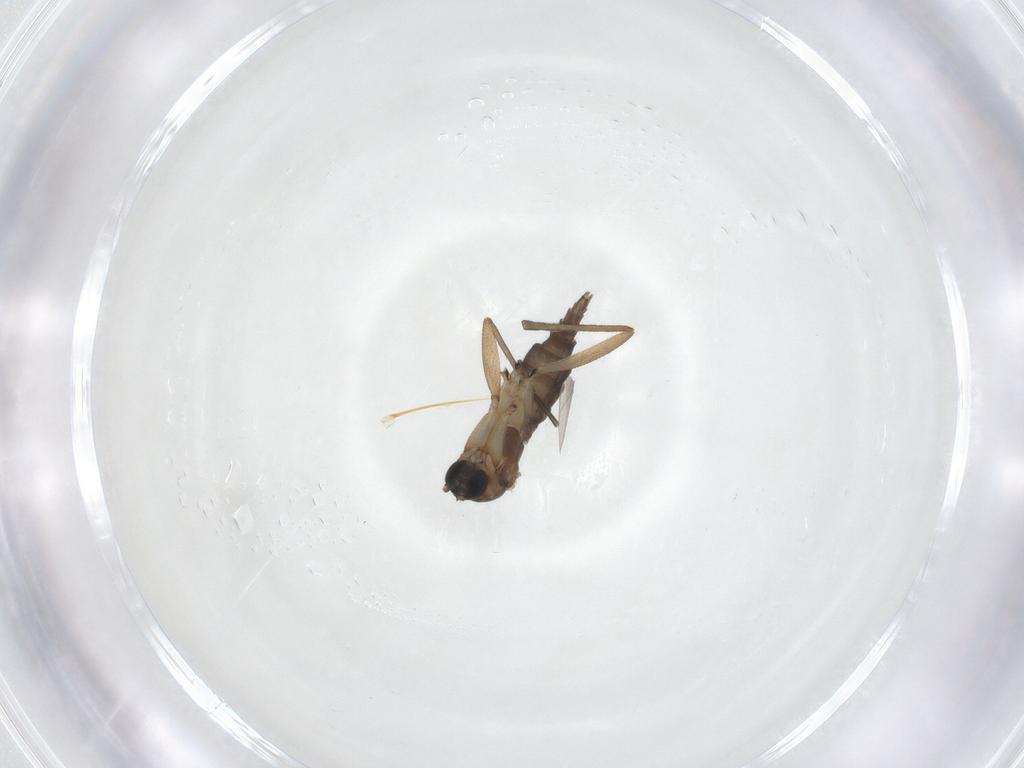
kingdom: Animalia
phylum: Arthropoda
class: Insecta
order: Diptera
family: Sciaridae
